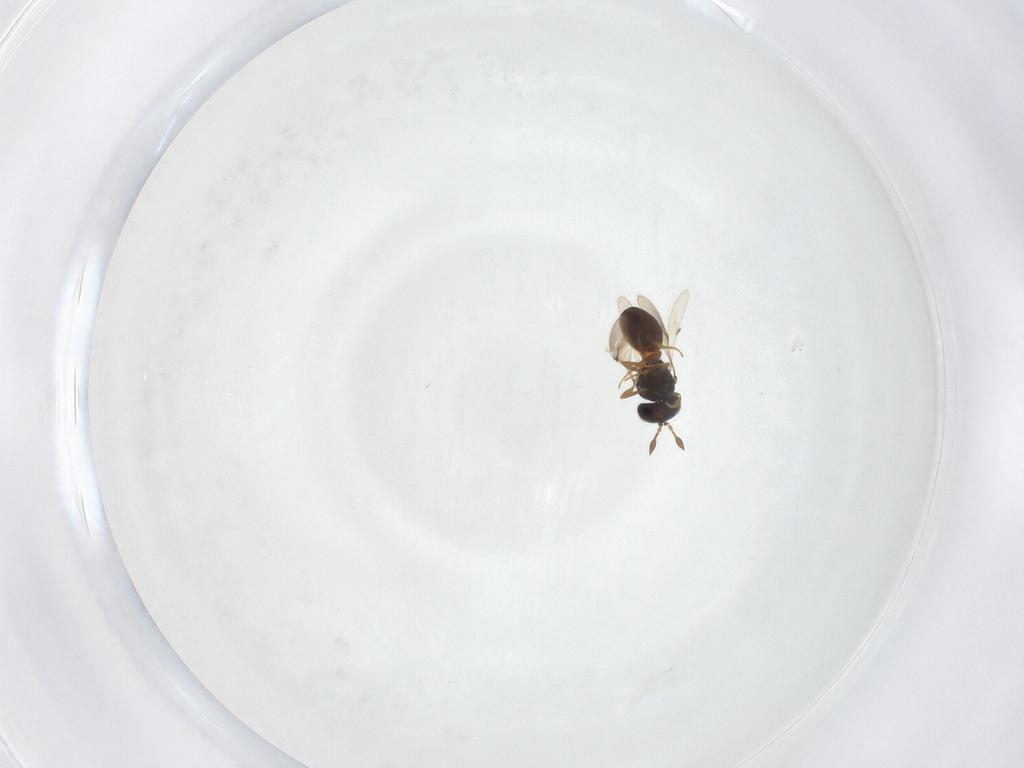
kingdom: Animalia
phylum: Arthropoda
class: Arachnida
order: Araneae
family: Pholcidae
